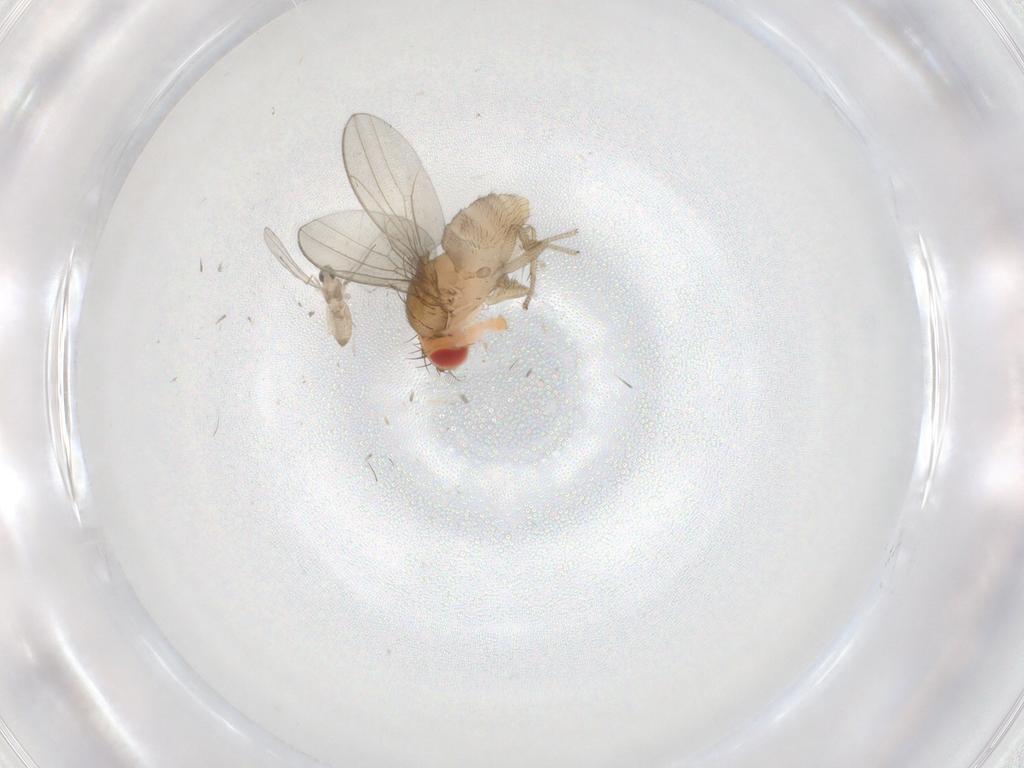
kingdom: Animalia
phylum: Arthropoda
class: Insecta
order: Diptera
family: Drosophilidae
